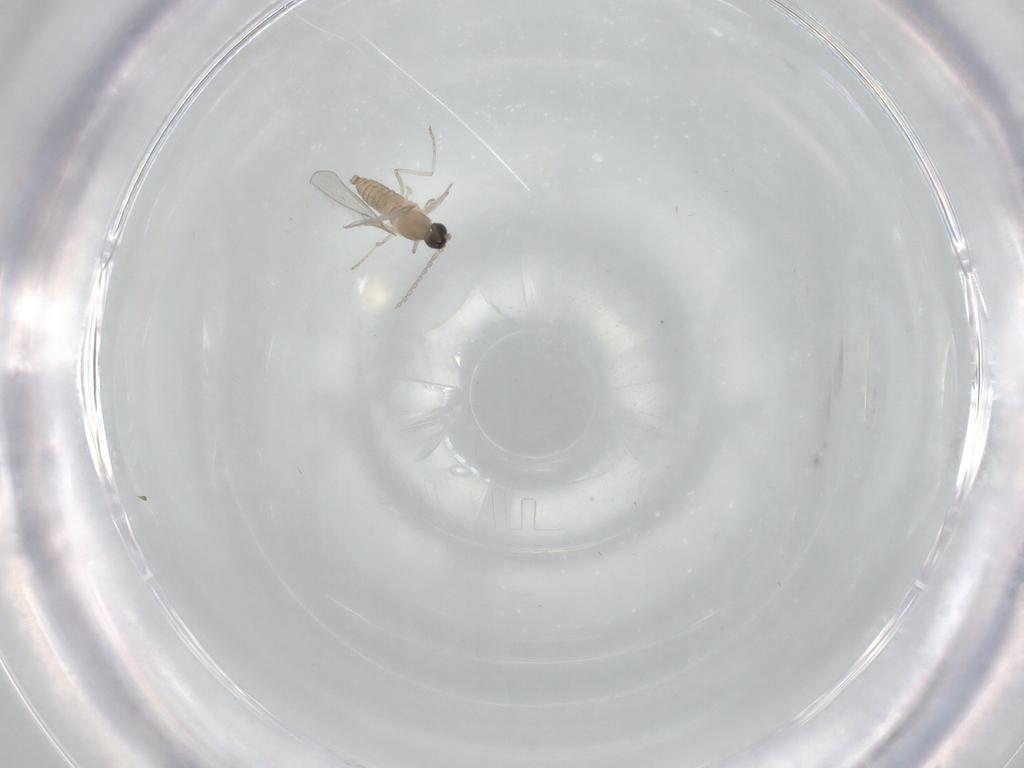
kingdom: Animalia
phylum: Arthropoda
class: Insecta
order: Diptera
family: Cecidomyiidae
